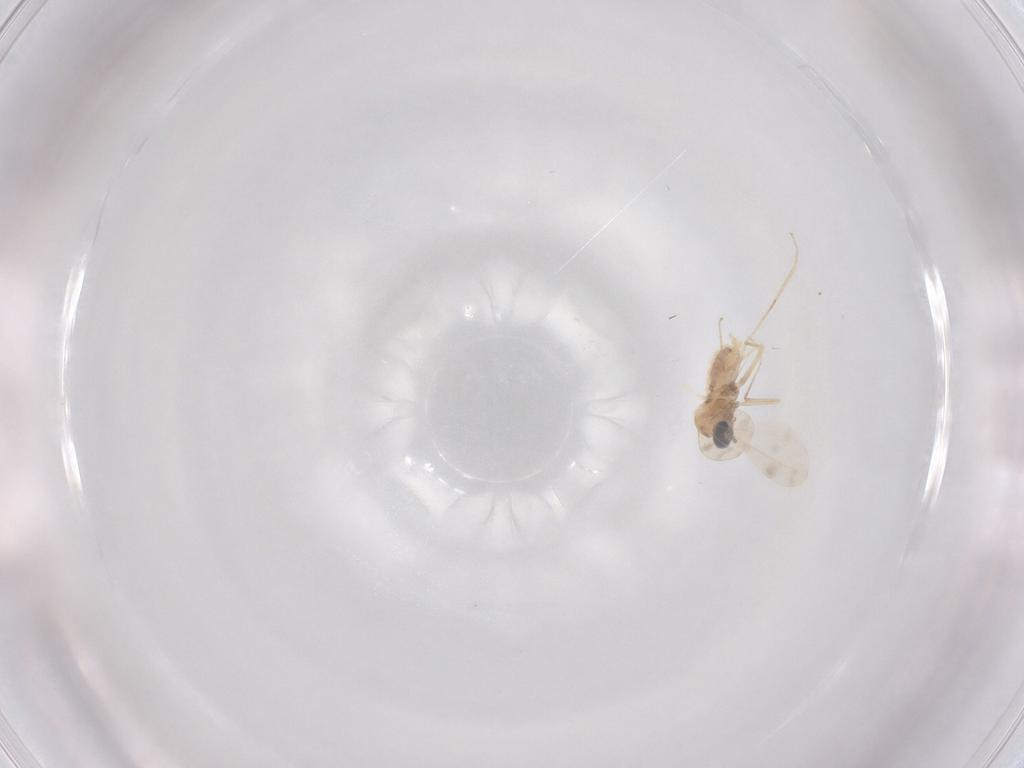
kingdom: Animalia
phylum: Arthropoda
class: Insecta
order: Diptera
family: Cecidomyiidae
